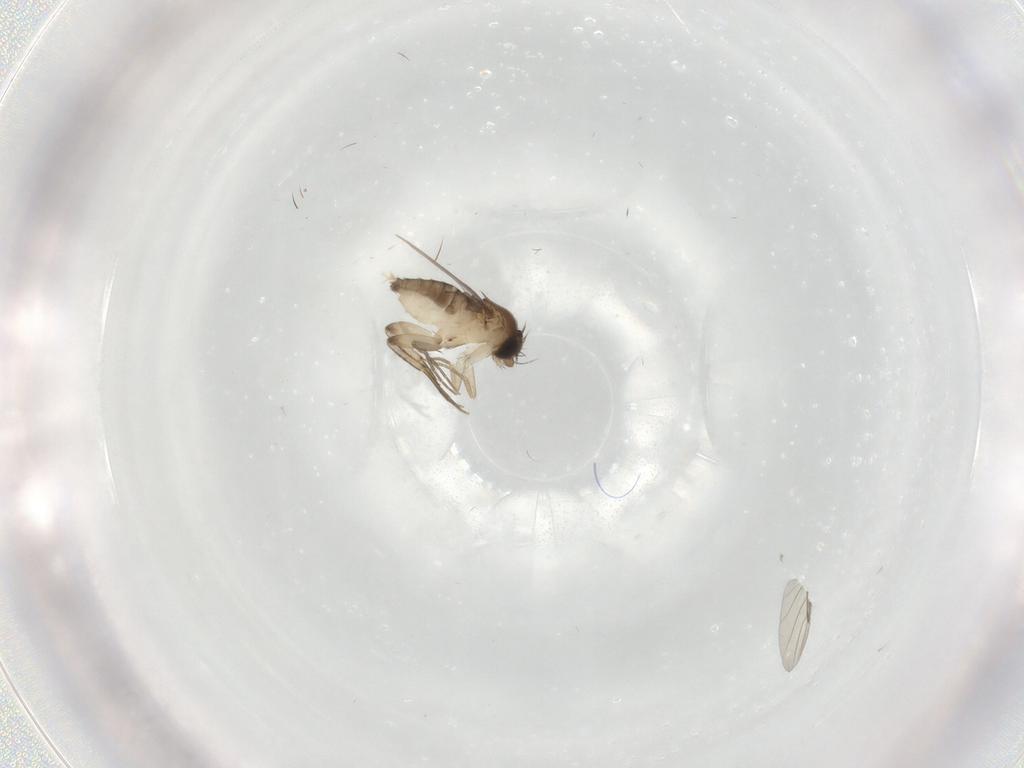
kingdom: Animalia
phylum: Arthropoda
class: Insecta
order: Diptera
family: Phoridae
